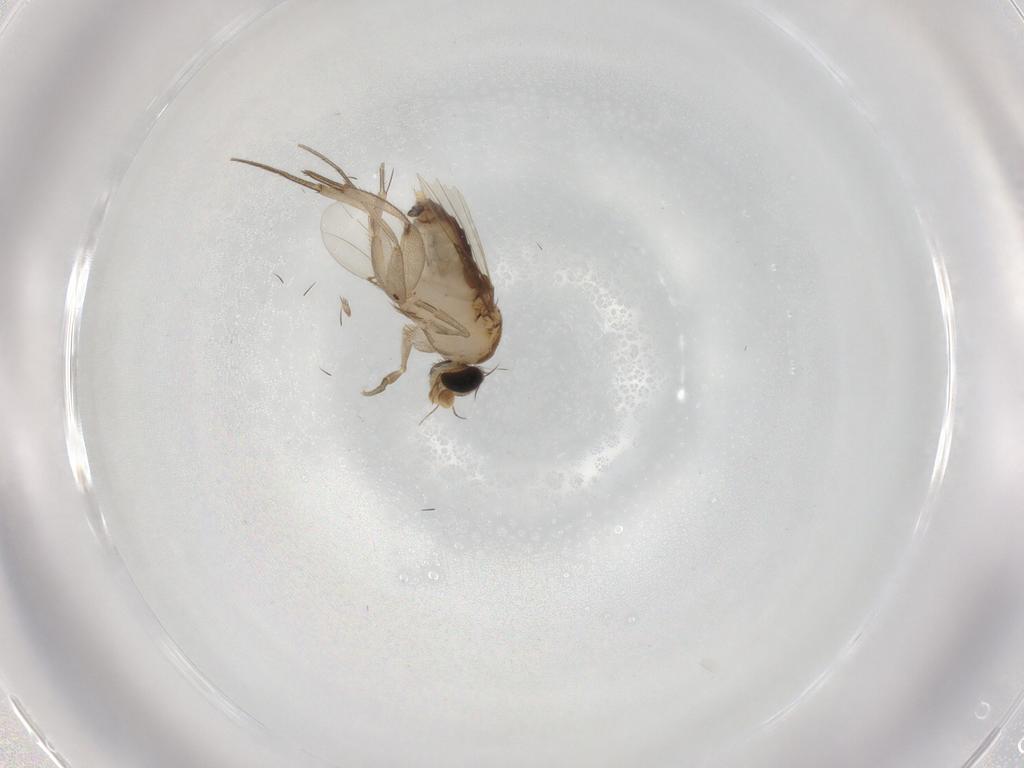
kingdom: Animalia
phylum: Arthropoda
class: Insecta
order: Diptera
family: Phoridae
